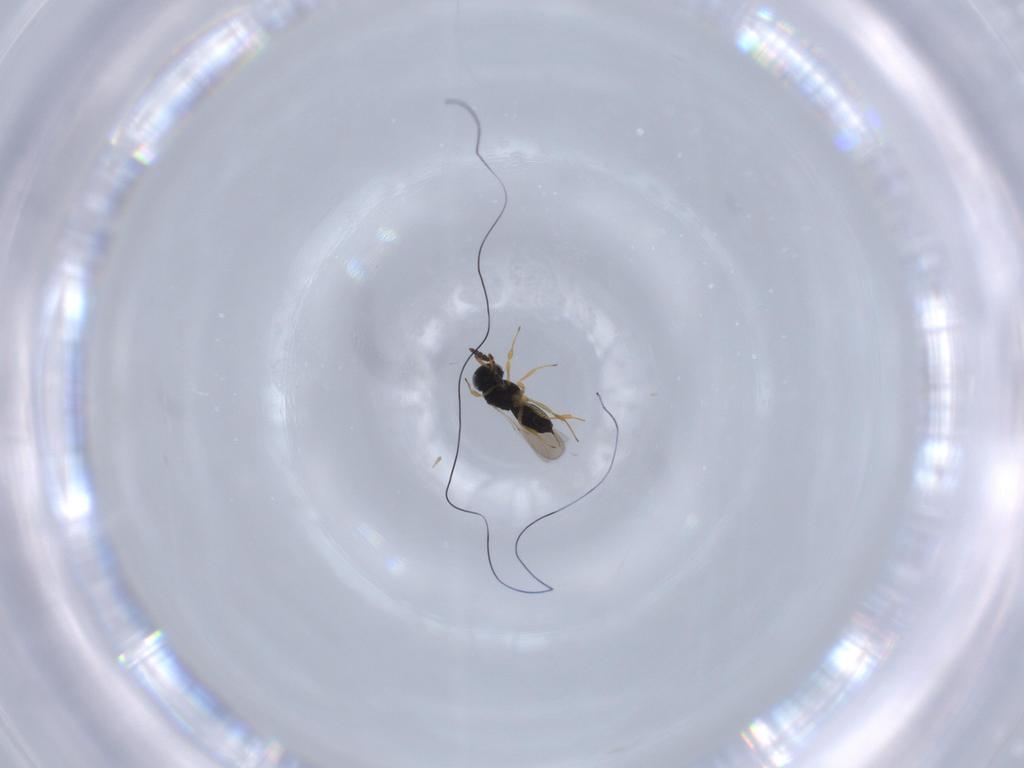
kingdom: Animalia
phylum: Arthropoda
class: Insecta
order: Hymenoptera
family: Scelionidae
